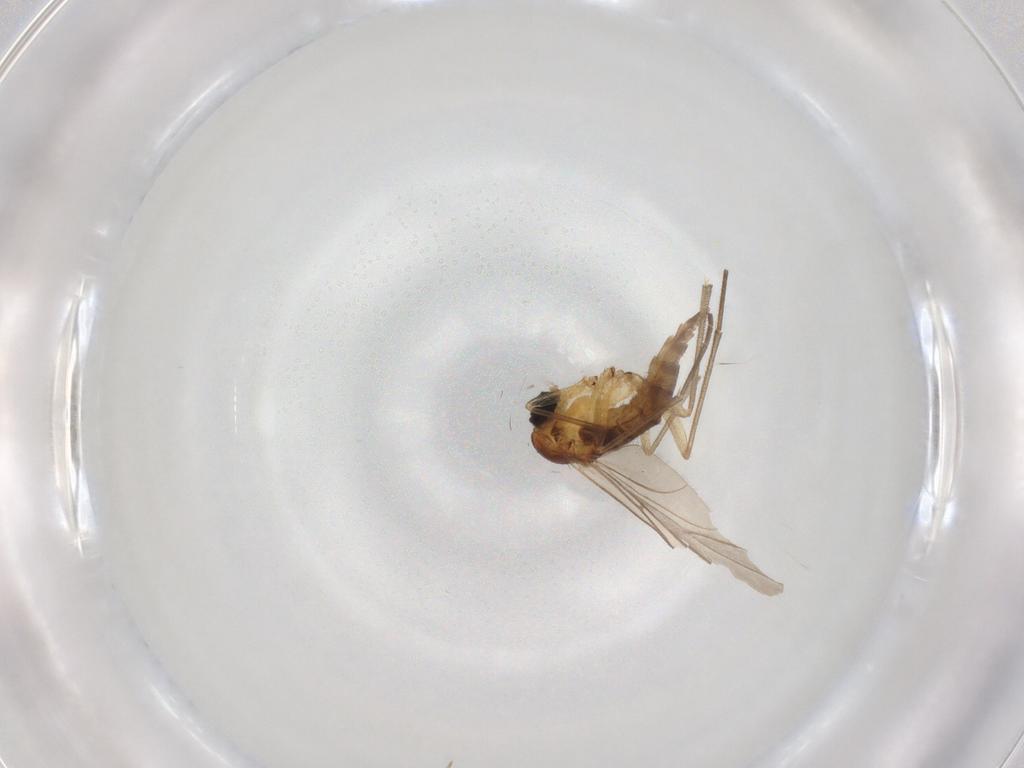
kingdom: Animalia
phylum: Arthropoda
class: Insecta
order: Diptera
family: Sciaridae
